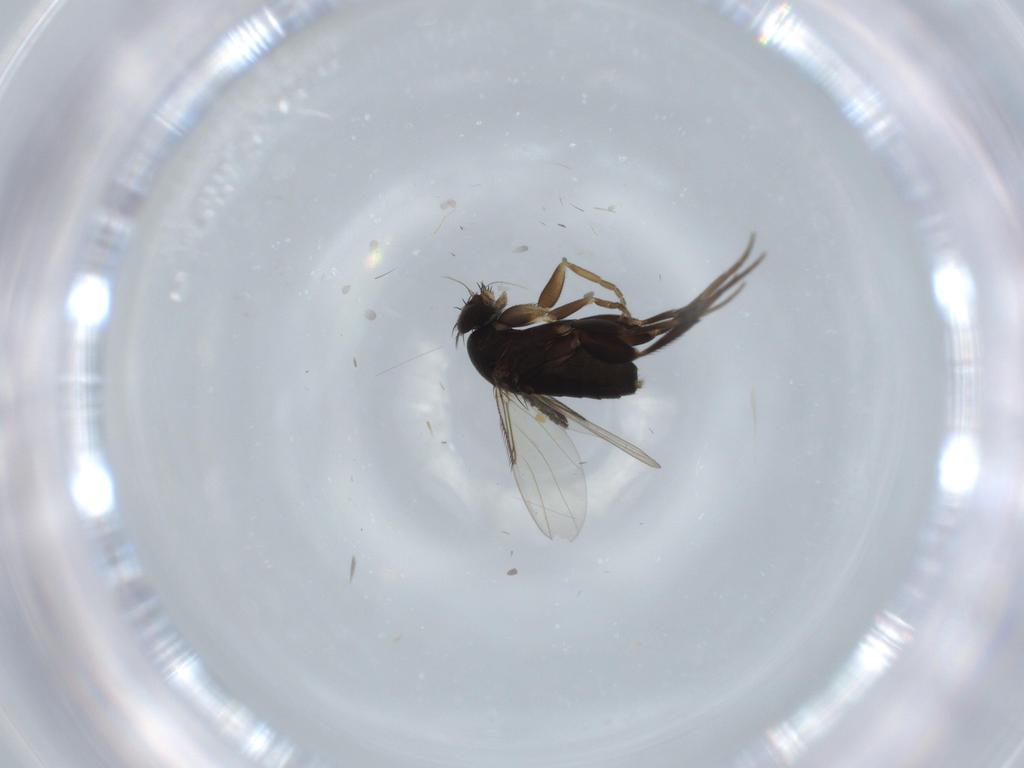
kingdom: Animalia
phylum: Arthropoda
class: Insecta
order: Diptera
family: Phoridae
